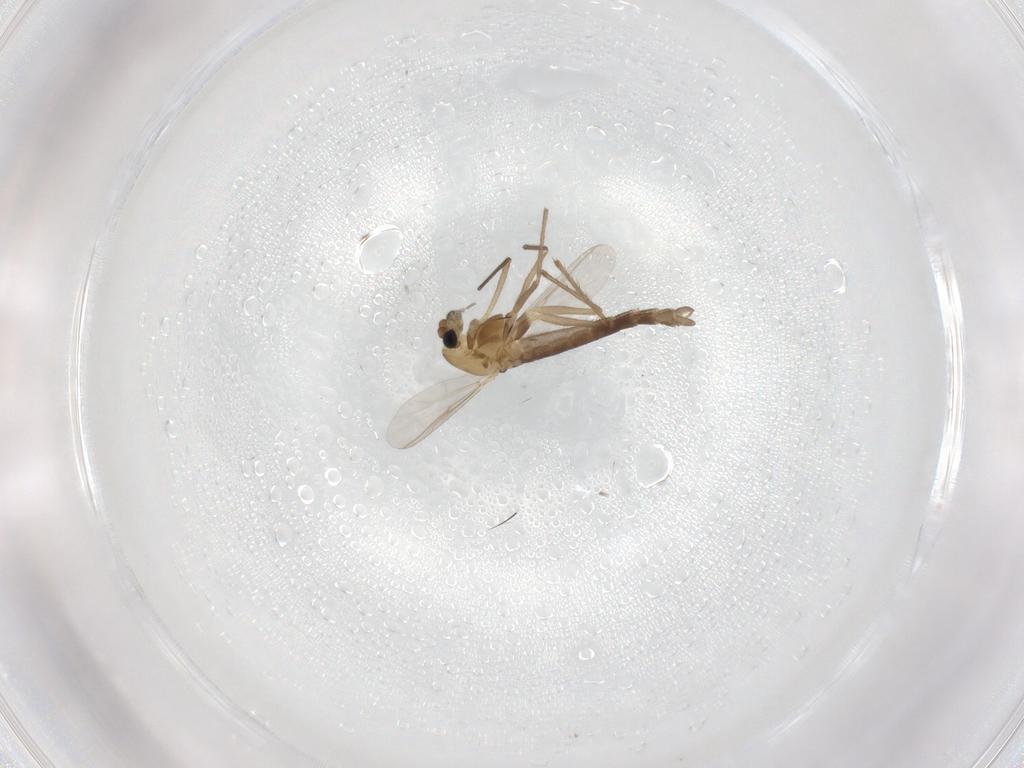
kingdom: Animalia
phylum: Arthropoda
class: Insecta
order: Diptera
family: Chironomidae
